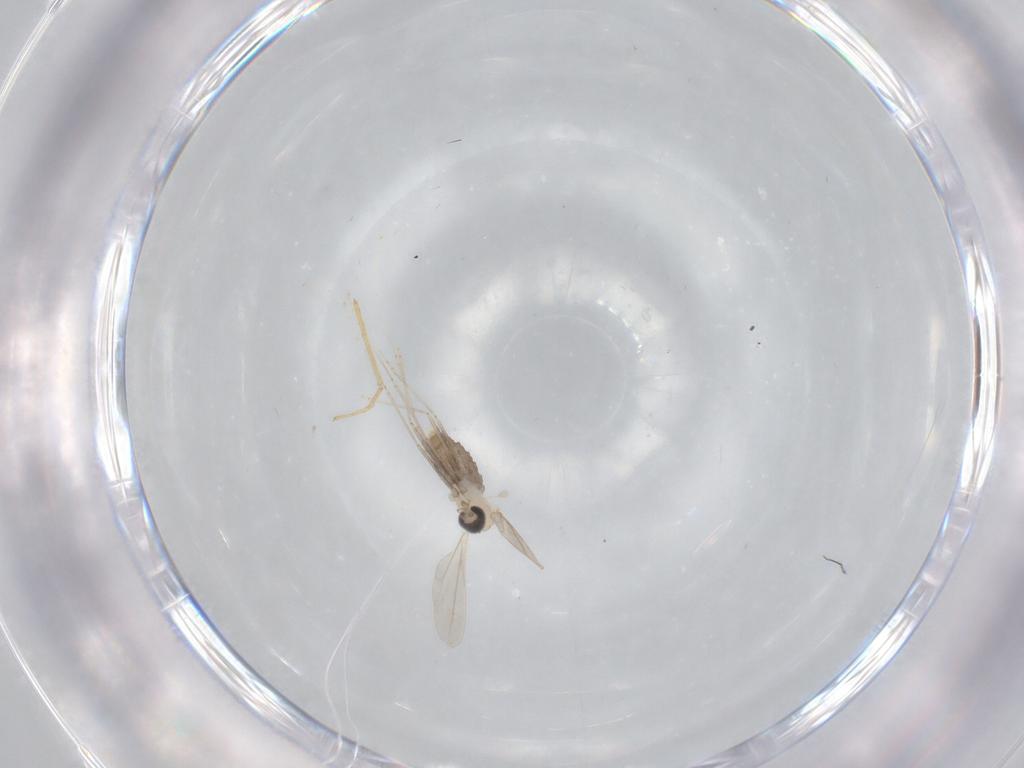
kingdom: Animalia
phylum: Arthropoda
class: Insecta
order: Diptera
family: Cecidomyiidae
